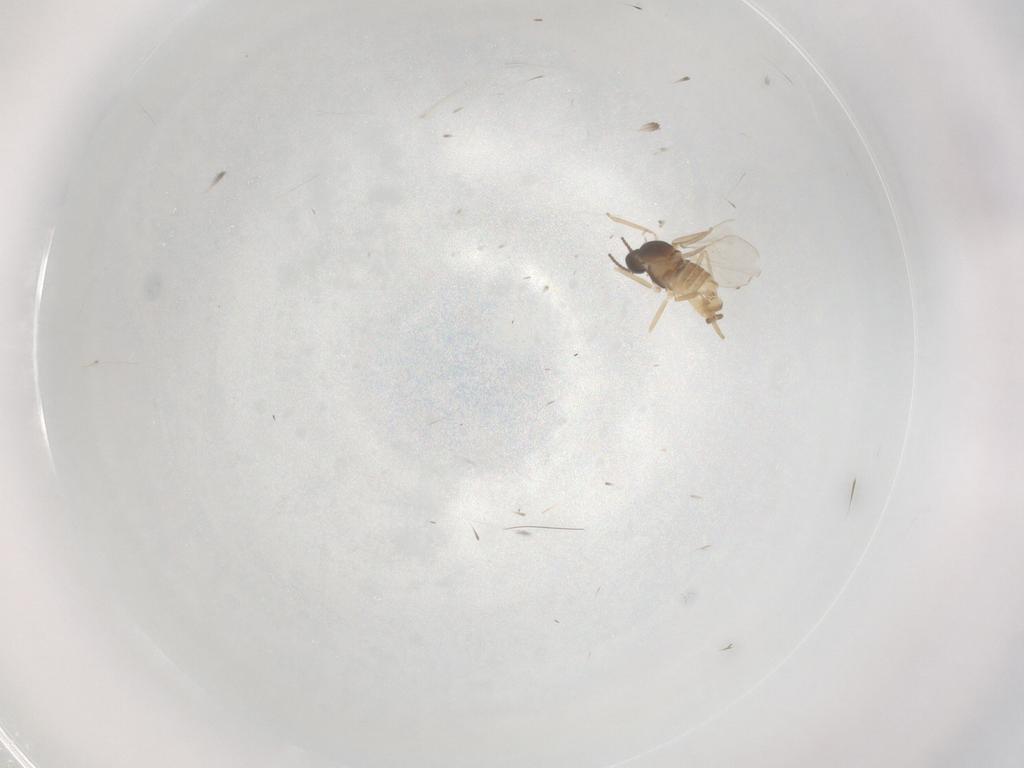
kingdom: Animalia
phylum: Arthropoda
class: Insecta
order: Diptera
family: Cecidomyiidae
